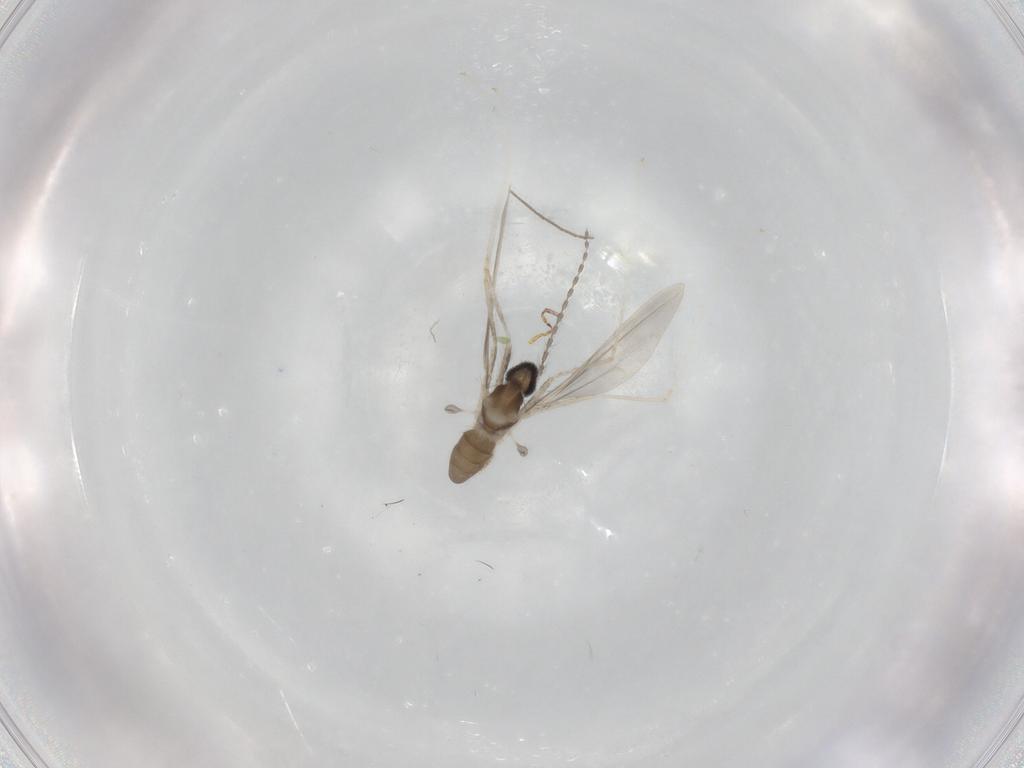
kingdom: Animalia
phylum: Arthropoda
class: Insecta
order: Diptera
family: Cecidomyiidae
